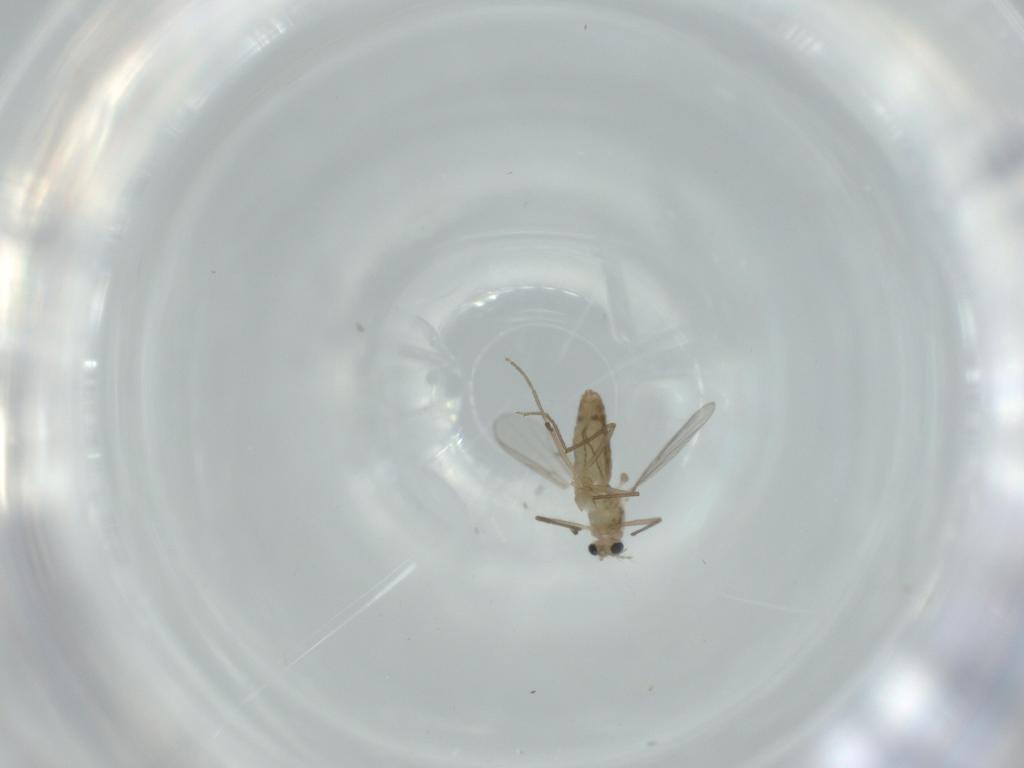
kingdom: Animalia
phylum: Arthropoda
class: Insecta
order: Diptera
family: Chironomidae
